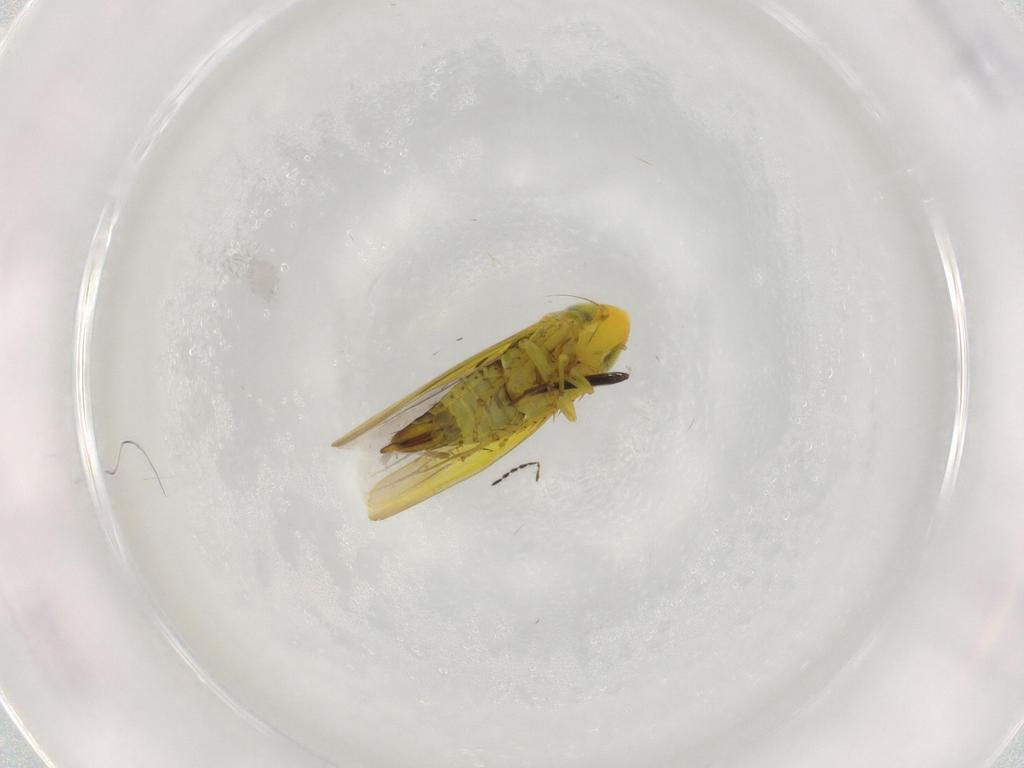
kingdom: Animalia
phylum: Arthropoda
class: Insecta
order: Hemiptera
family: Cicadellidae
